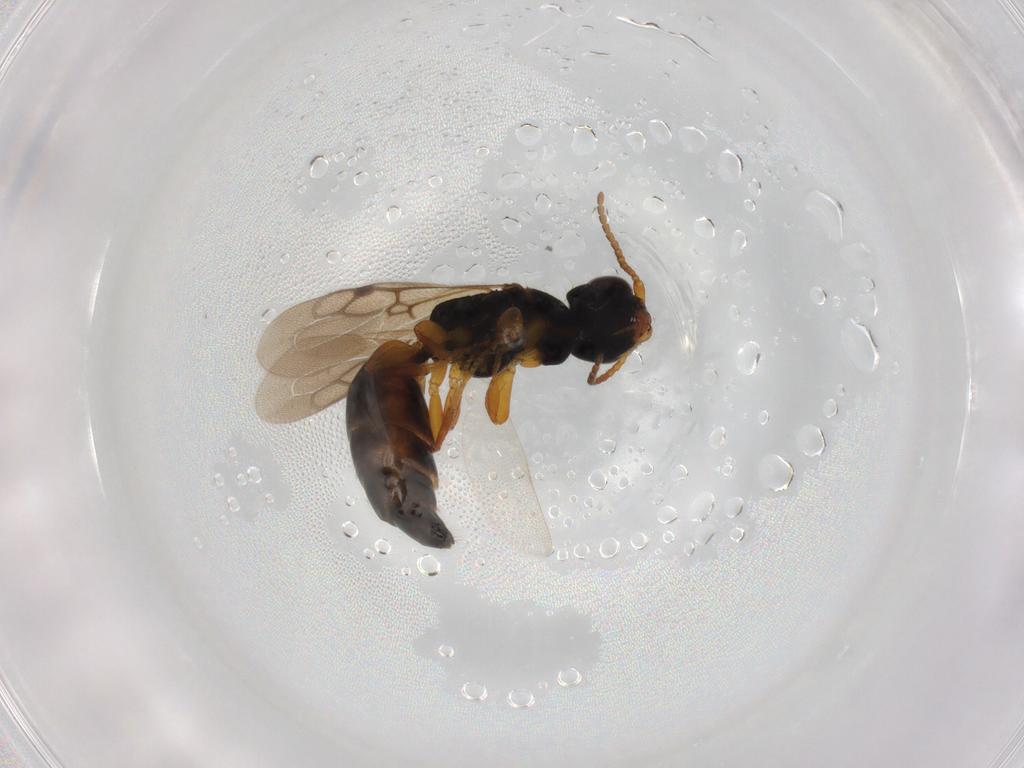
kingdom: Animalia
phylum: Arthropoda
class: Insecta
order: Hymenoptera
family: Bethylidae
